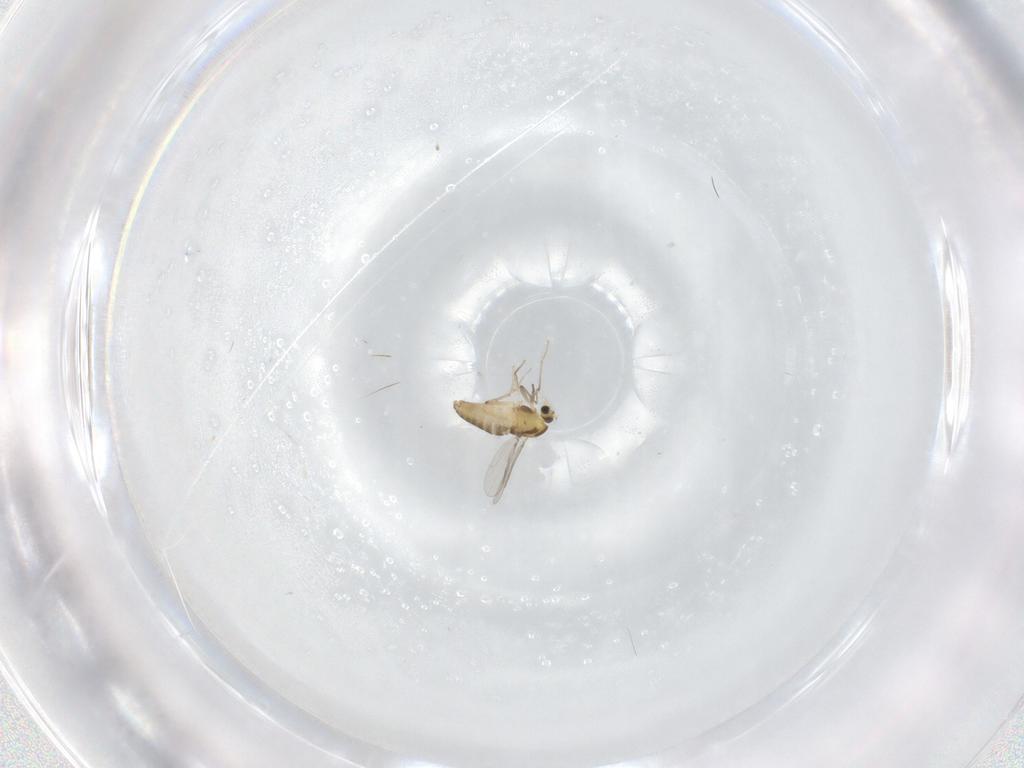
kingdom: Animalia
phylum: Arthropoda
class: Insecta
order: Diptera
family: Chironomidae
